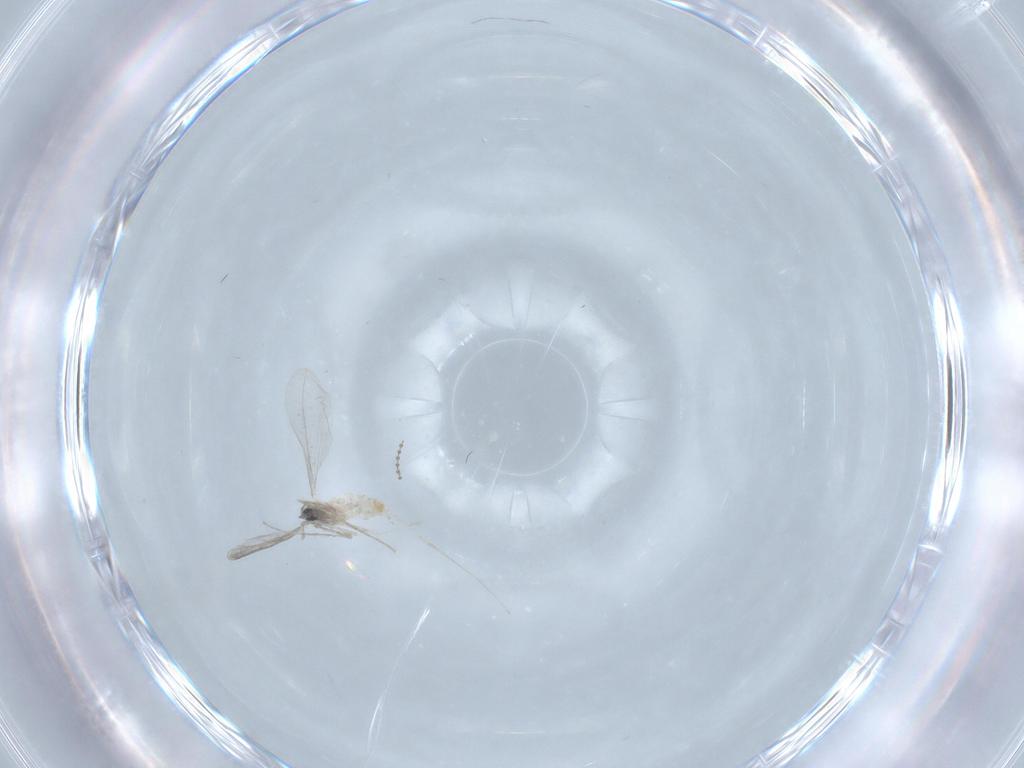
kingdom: Animalia
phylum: Arthropoda
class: Insecta
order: Diptera
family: Cecidomyiidae
